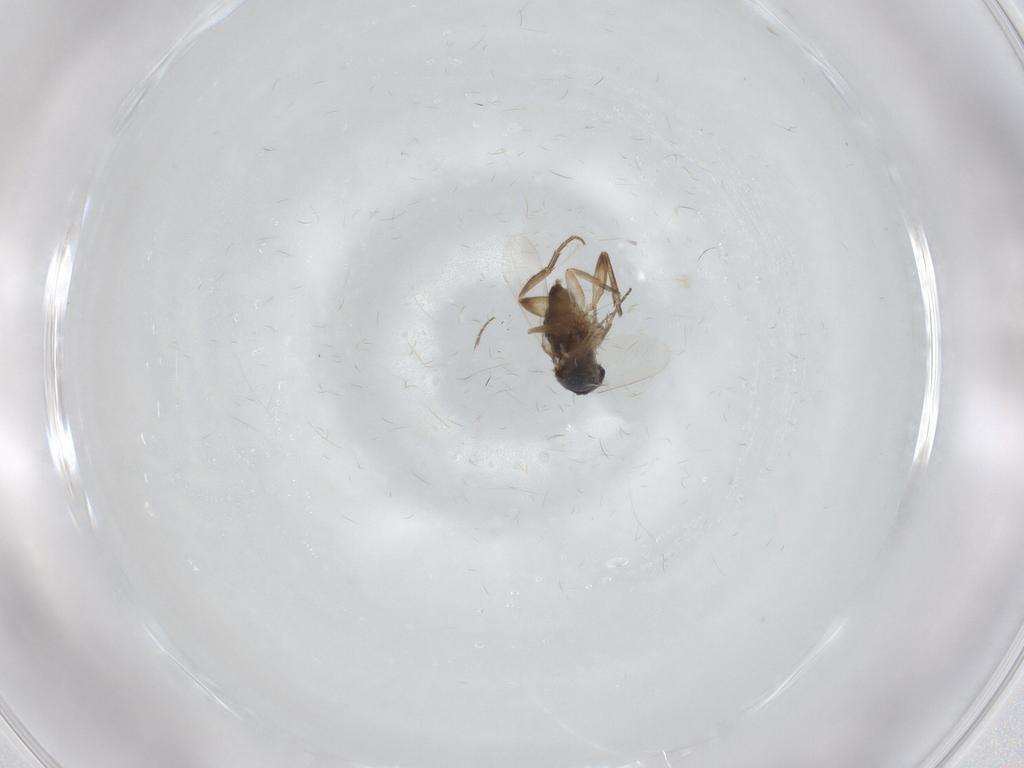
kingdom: Animalia
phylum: Arthropoda
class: Insecta
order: Diptera
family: Phoridae
